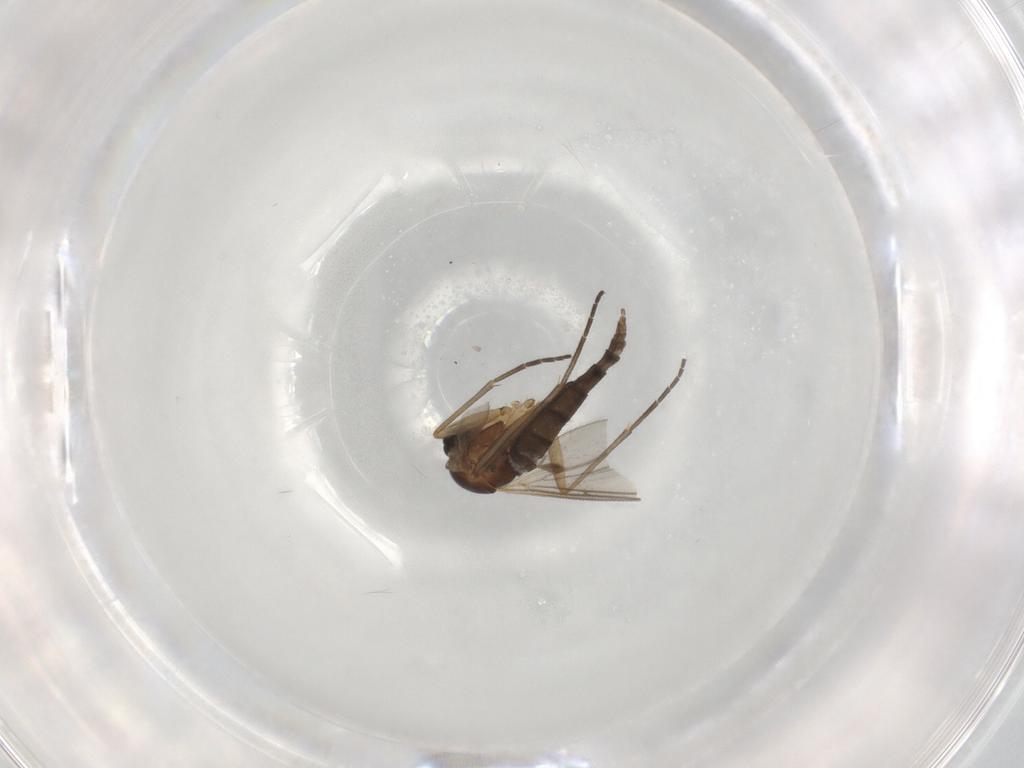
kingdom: Animalia
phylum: Arthropoda
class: Insecta
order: Diptera
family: Sciaridae
